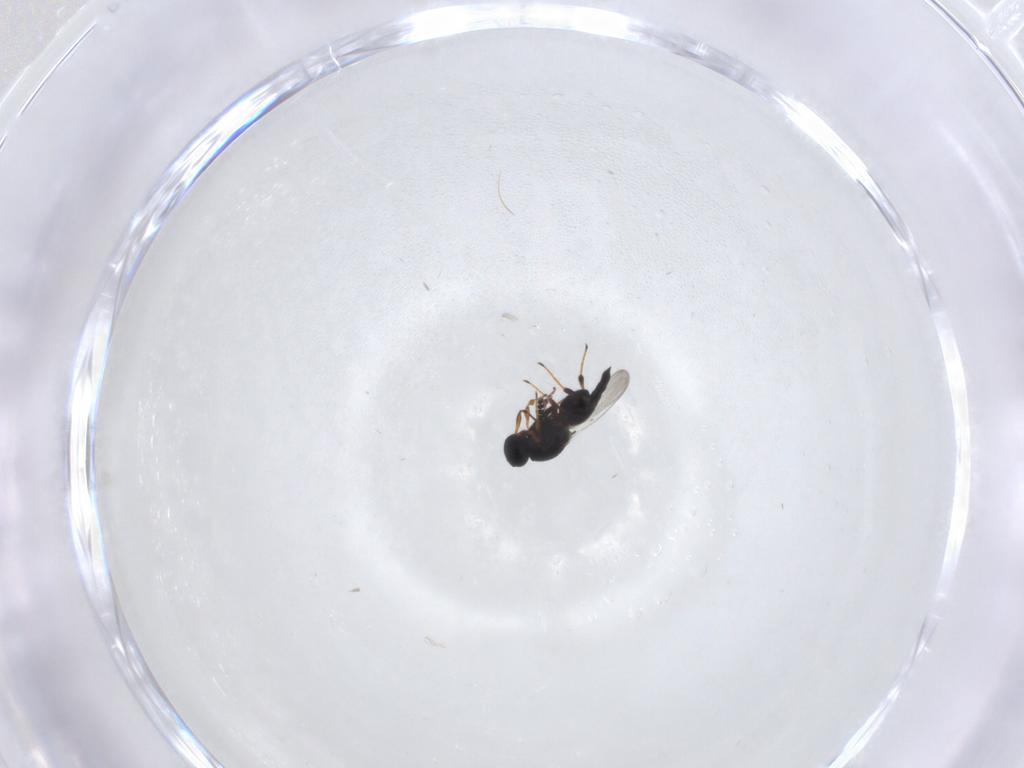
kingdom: Animalia
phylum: Arthropoda
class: Insecta
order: Hymenoptera
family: Platygastridae
